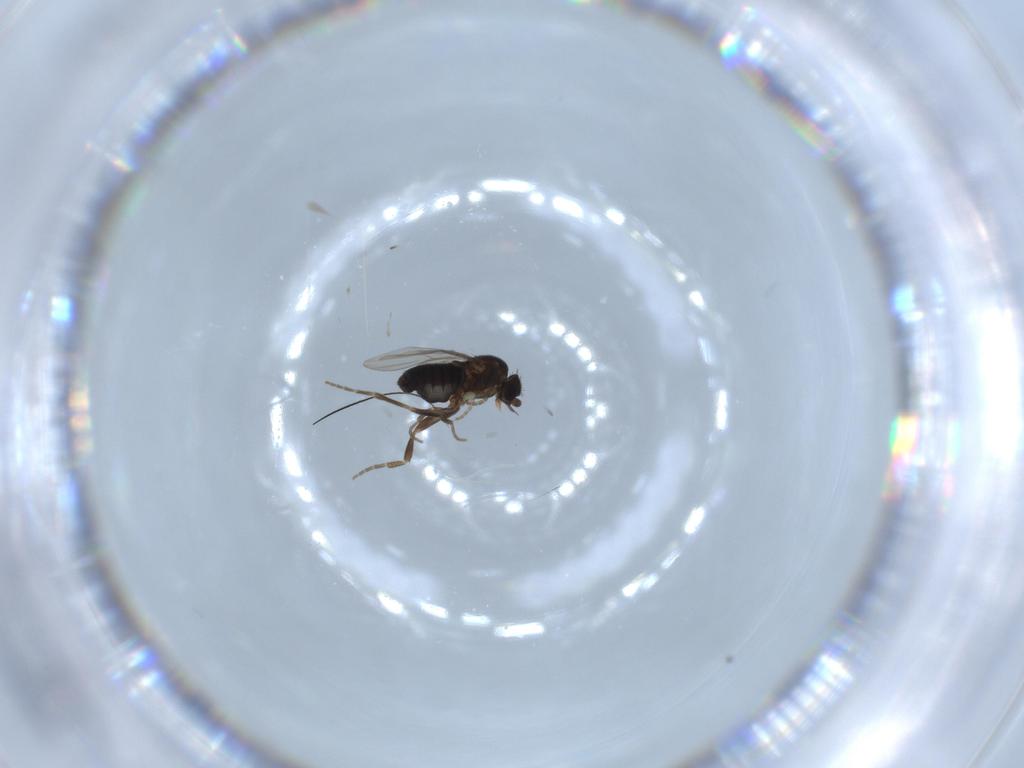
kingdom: Animalia
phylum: Arthropoda
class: Insecta
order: Diptera
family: Phoridae
